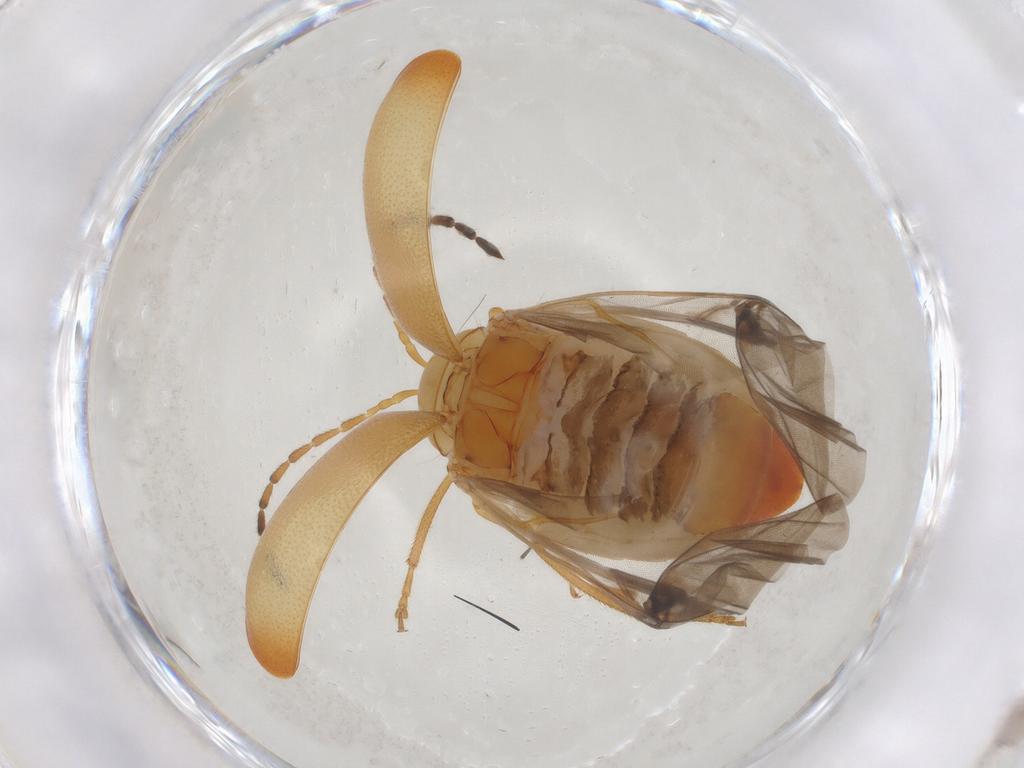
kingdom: Animalia
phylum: Arthropoda
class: Insecta
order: Coleoptera
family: Chrysomelidae
